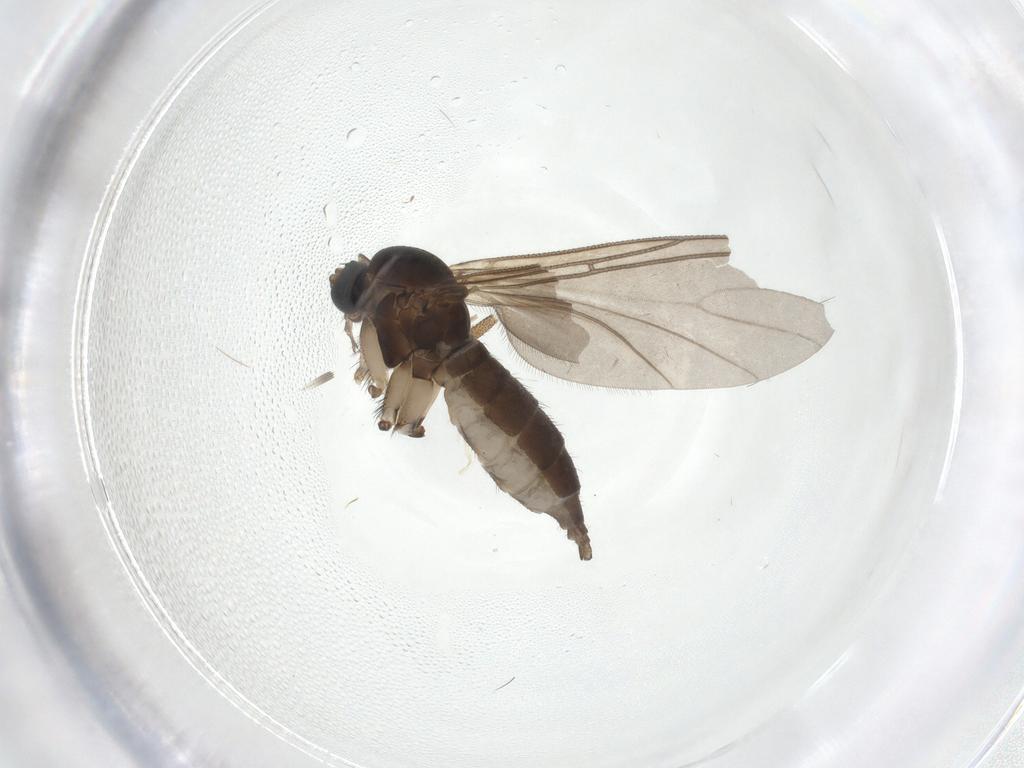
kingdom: Animalia
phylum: Arthropoda
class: Insecta
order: Diptera
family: Sciaridae
